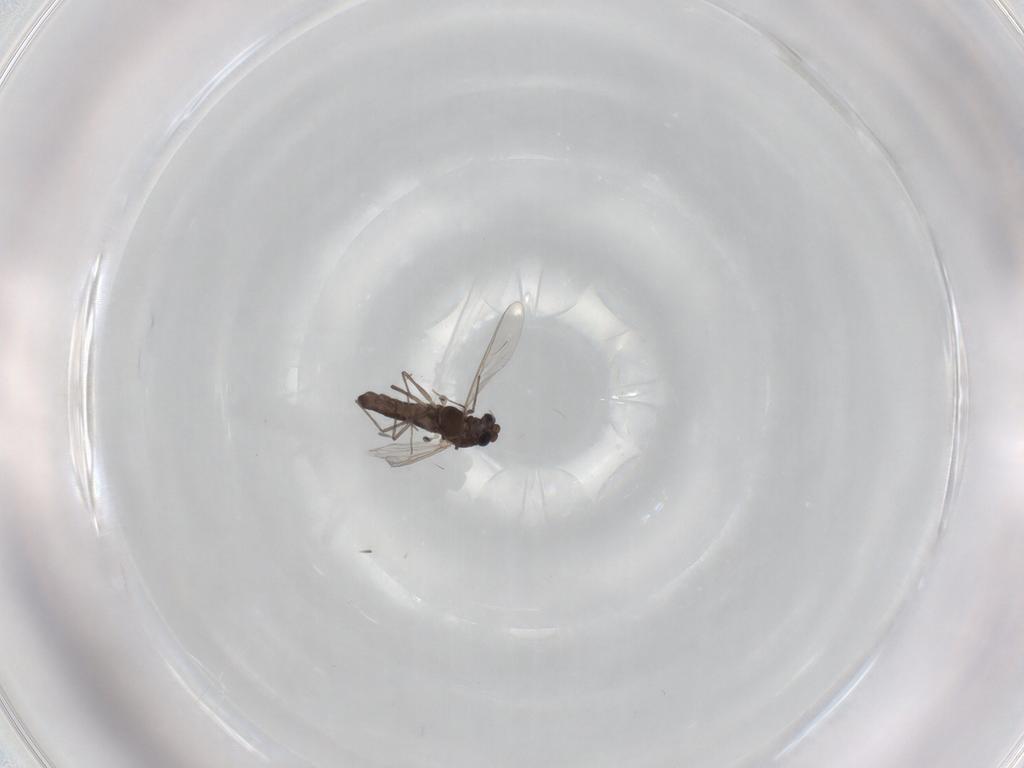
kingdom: Animalia
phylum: Arthropoda
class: Insecta
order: Diptera
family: Chironomidae
